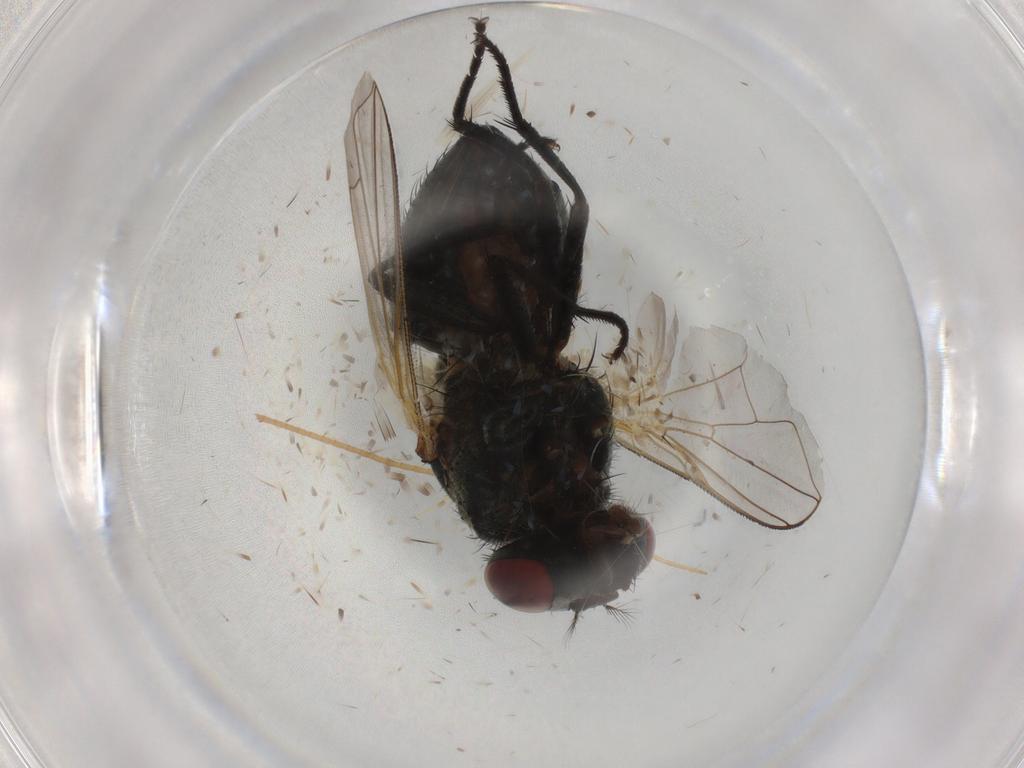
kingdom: Animalia
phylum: Arthropoda
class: Insecta
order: Diptera
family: Muscidae
